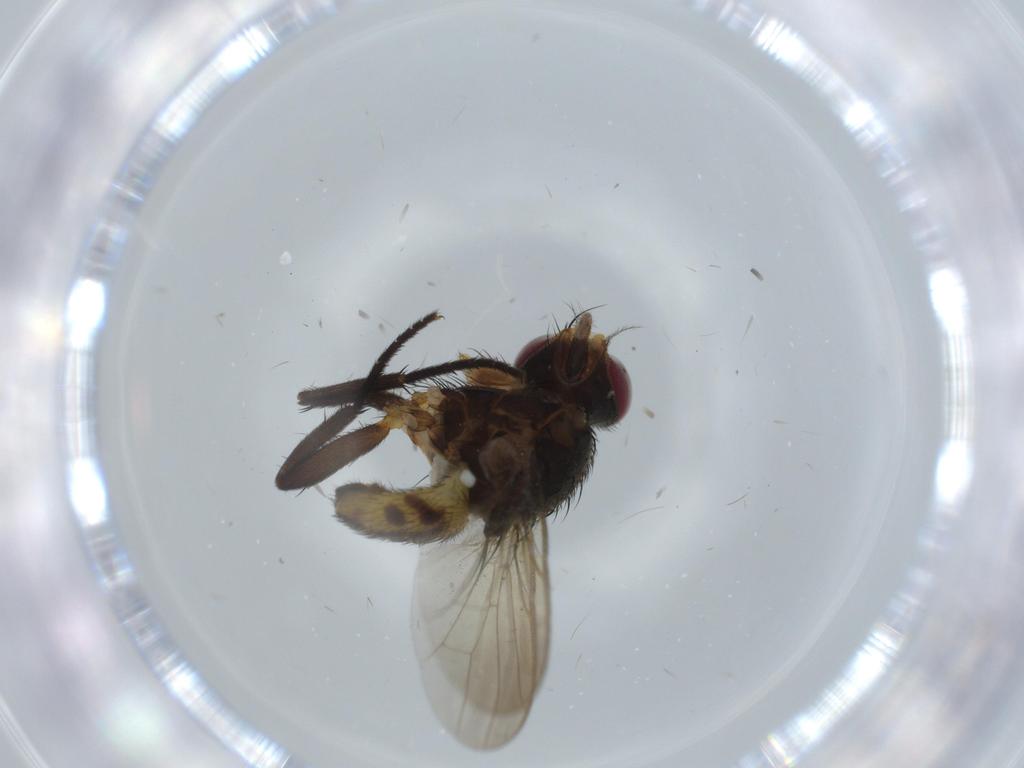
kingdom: Animalia
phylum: Arthropoda
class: Insecta
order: Diptera
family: Anthomyiidae
